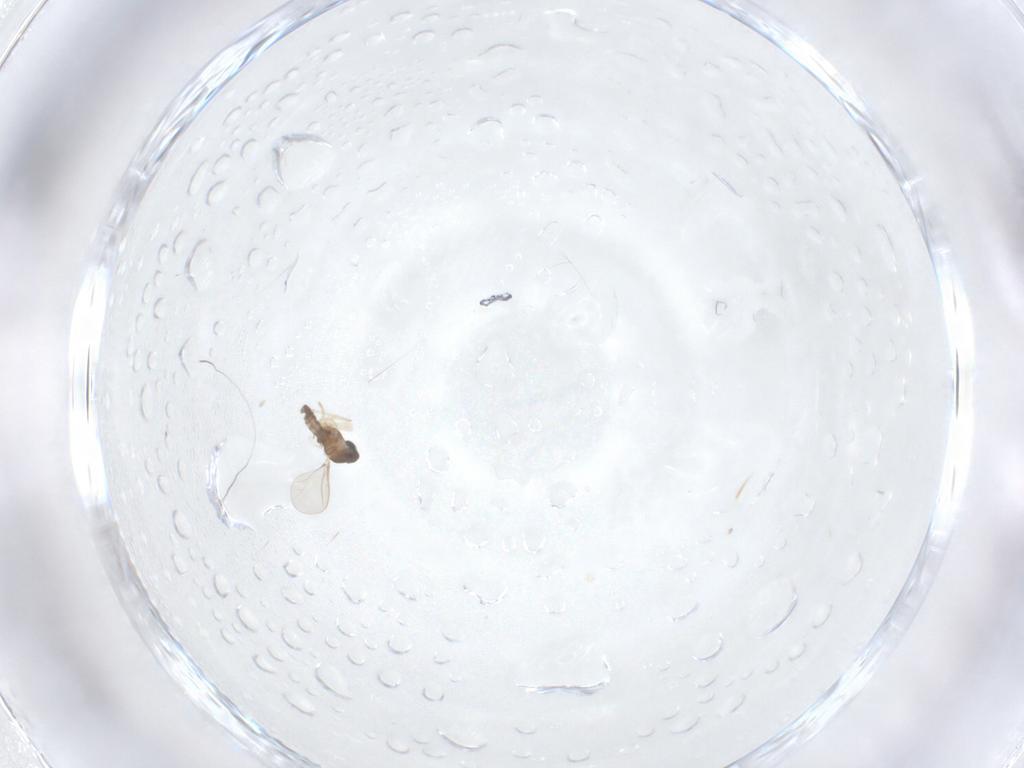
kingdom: Animalia
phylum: Arthropoda
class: Insecta
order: Diptera
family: Cecidomyiidae
